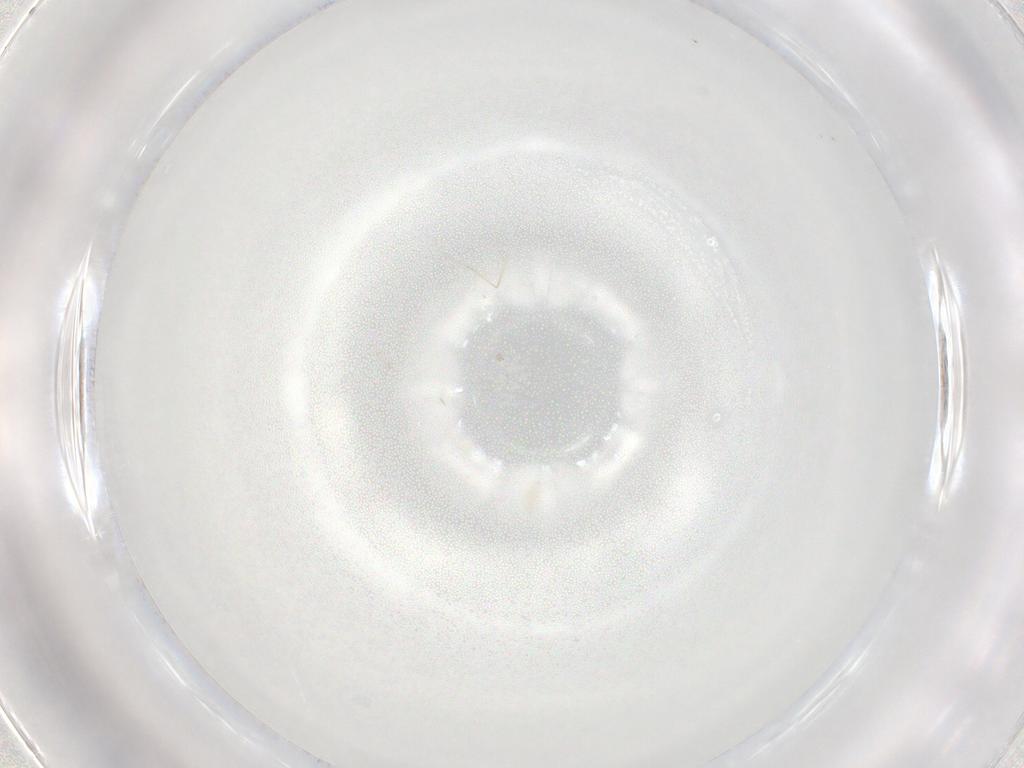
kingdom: Animalia
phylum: Arthropoda
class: Insecta
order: Diptera
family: Cecidomyiidae
